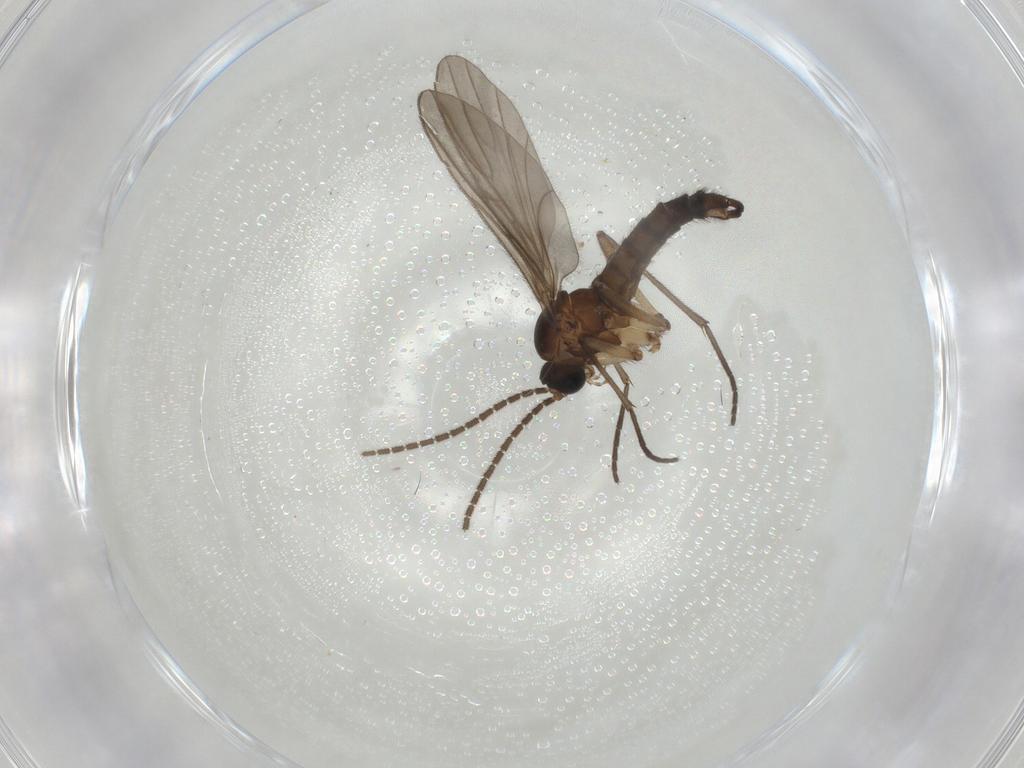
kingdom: Animalia
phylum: Arthropoda
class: Insecta
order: Diptera
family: Sciaridae
